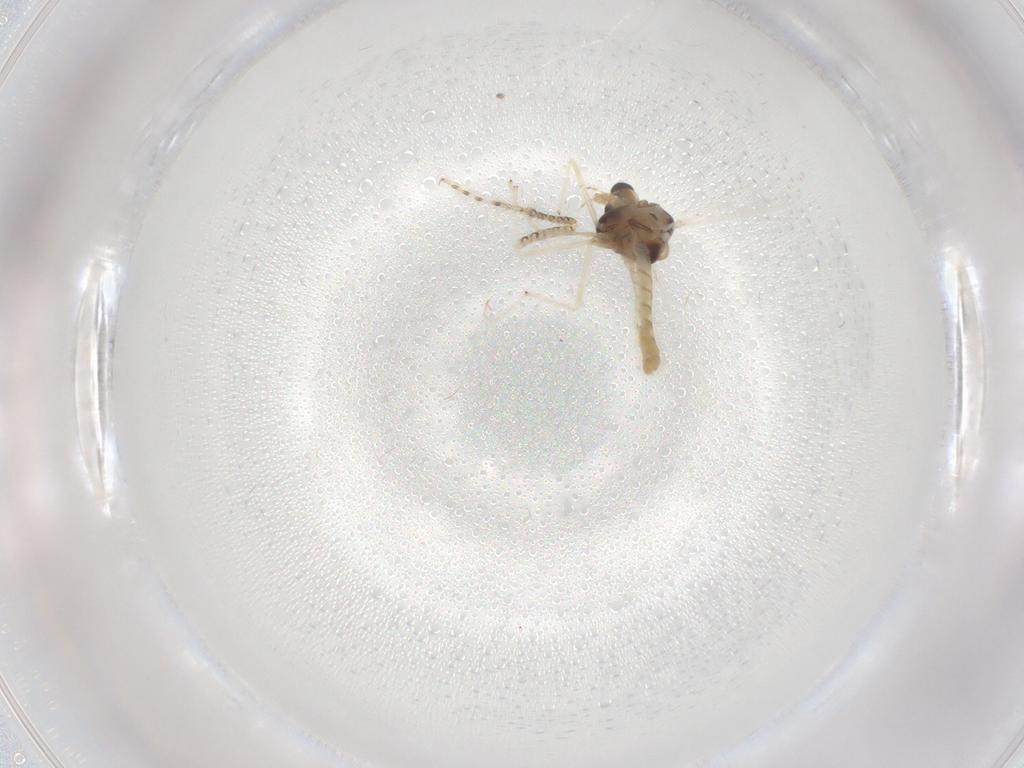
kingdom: Animalia
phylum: Arthropoda
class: Insecta
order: Diptera
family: Chironomidae
